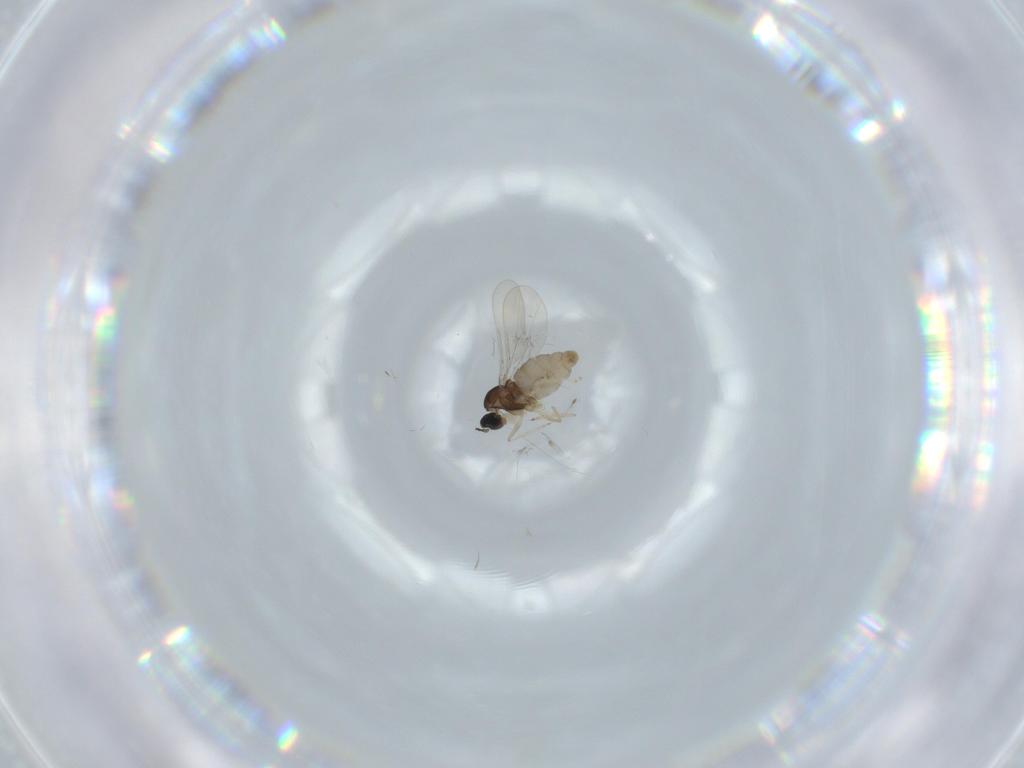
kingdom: Animalia
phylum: Arthropoda
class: Insecta
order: Diptera
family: Cecidomyiidae
